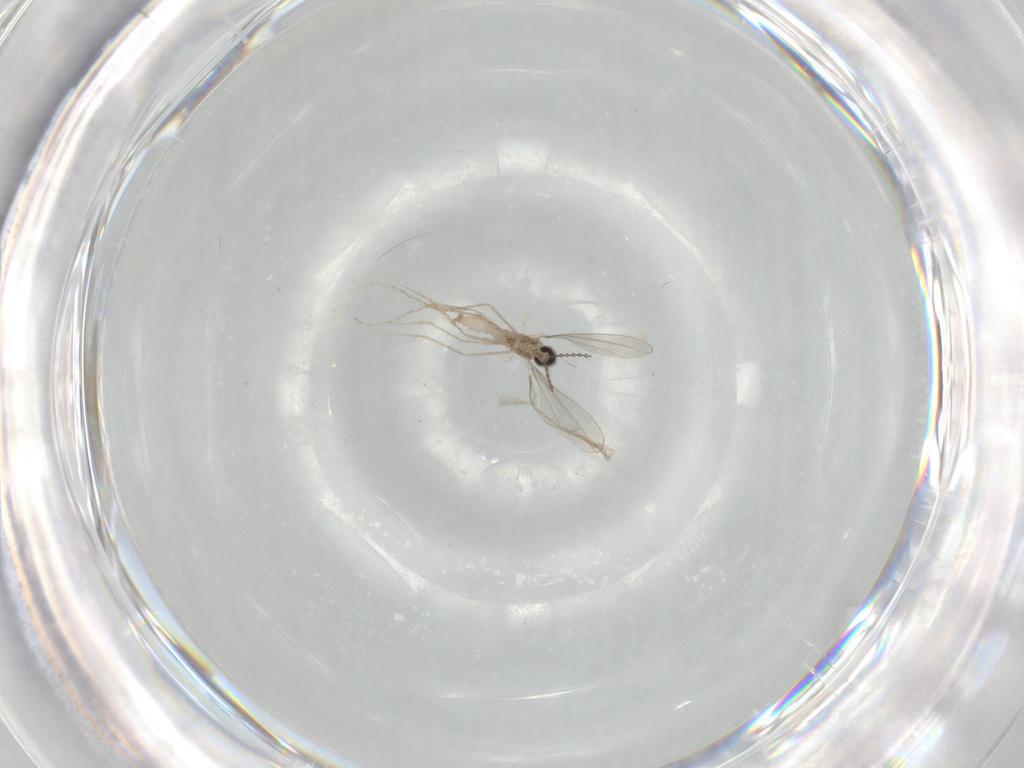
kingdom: Animalia
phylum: Arthropoda
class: Insecta
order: Diptera
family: Cecidomyiidae
